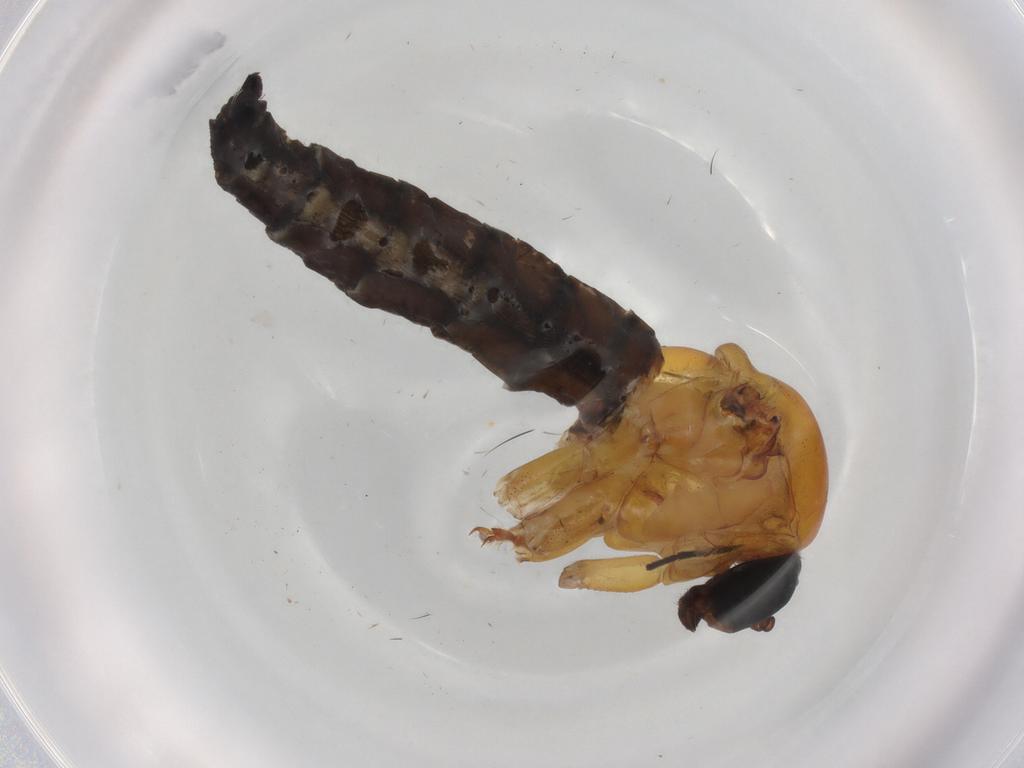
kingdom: Animalia
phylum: Arthropoda
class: Insecta
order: Diptera
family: Sciaridae
